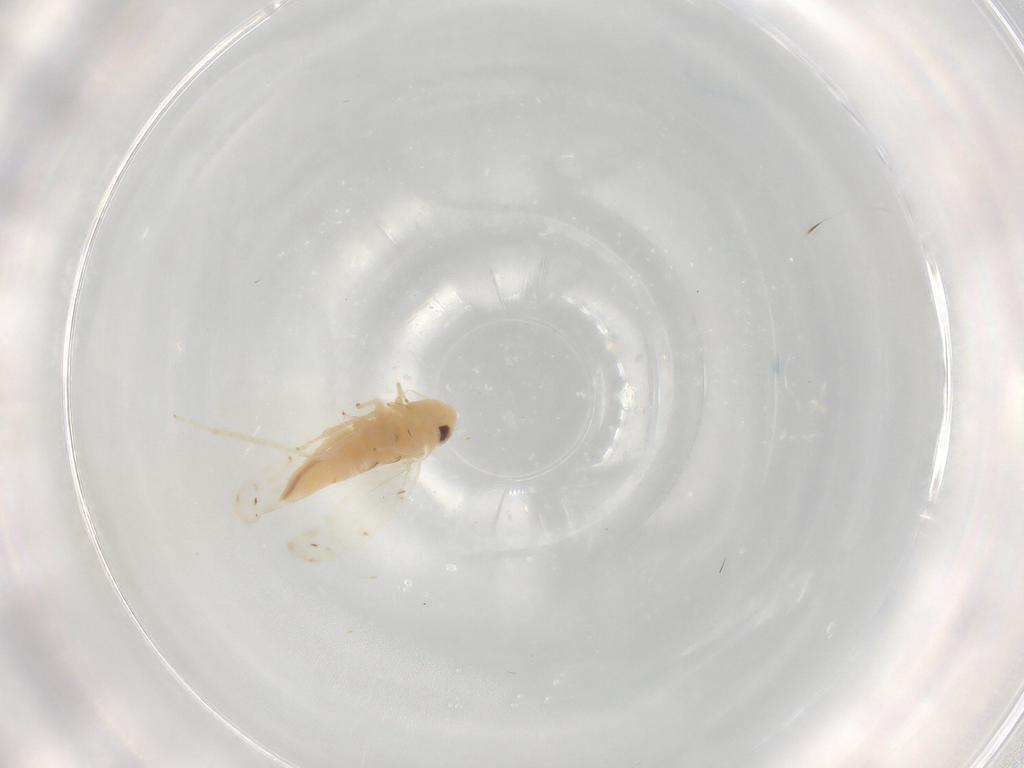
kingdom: Animalia
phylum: Arthropoda
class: Insecta
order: Hemiptera
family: Cicadellidae
